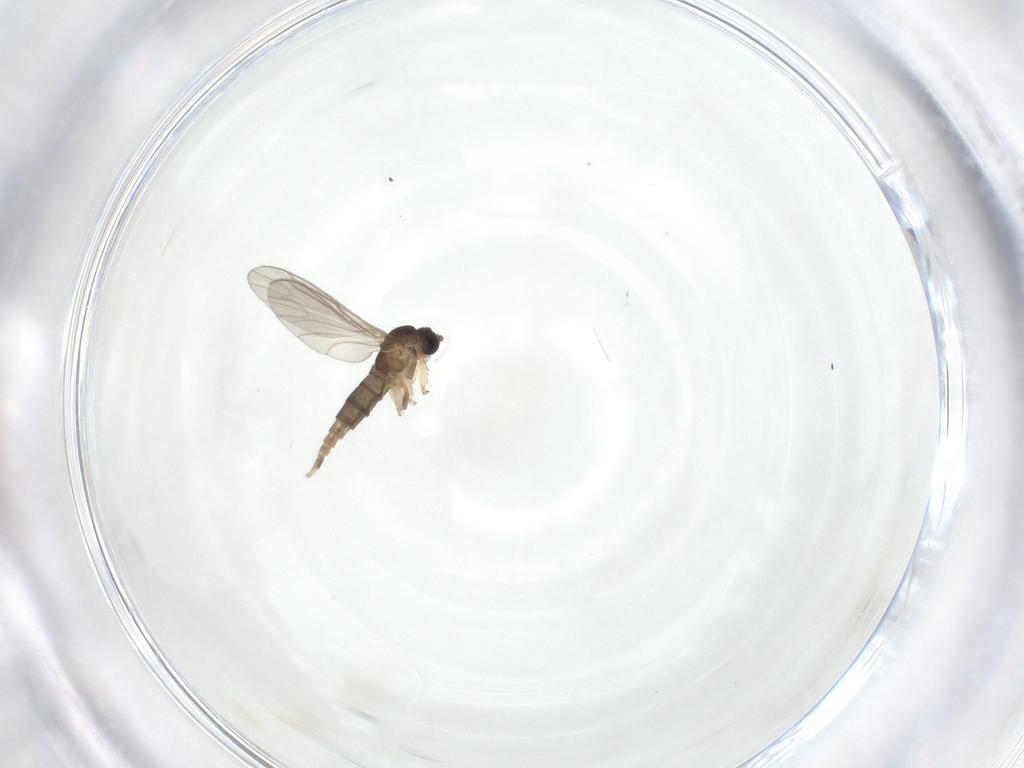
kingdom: Animalia
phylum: Arthropoda
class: Insecta
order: Diptera
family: Sciaridae
